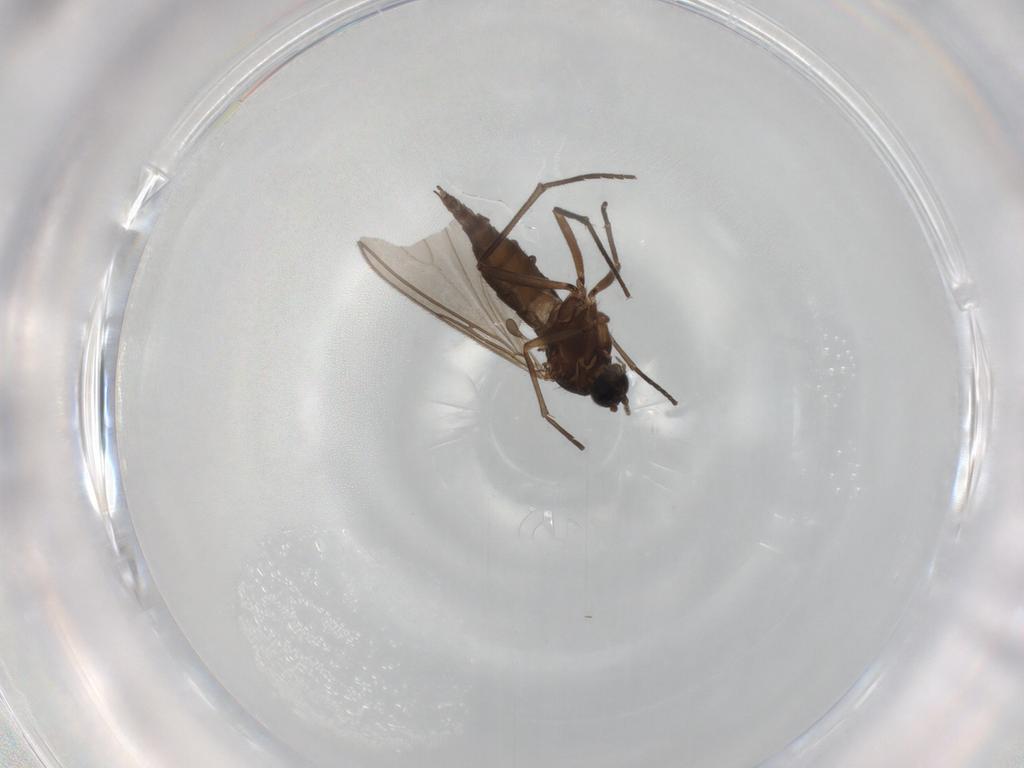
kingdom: Animalia
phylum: Arthropoda
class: Insecta
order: Diptera
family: Sciaridae
